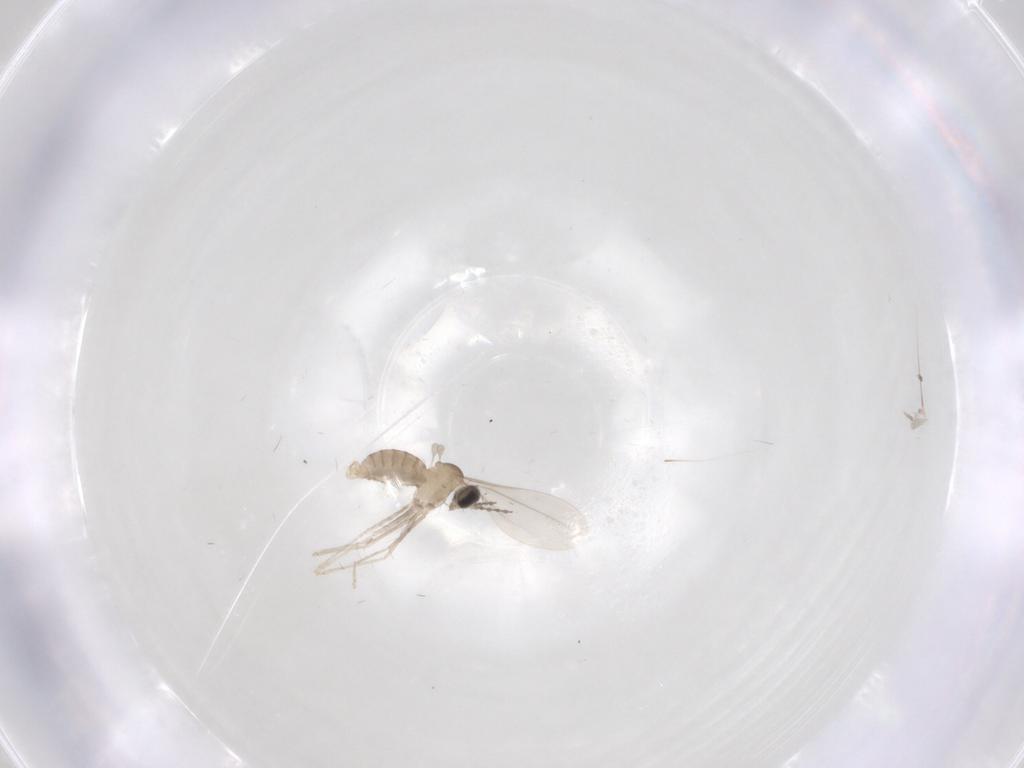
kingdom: Animalia
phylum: Arthropoda
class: Insecta
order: Diptera
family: Cecidomyiidae
